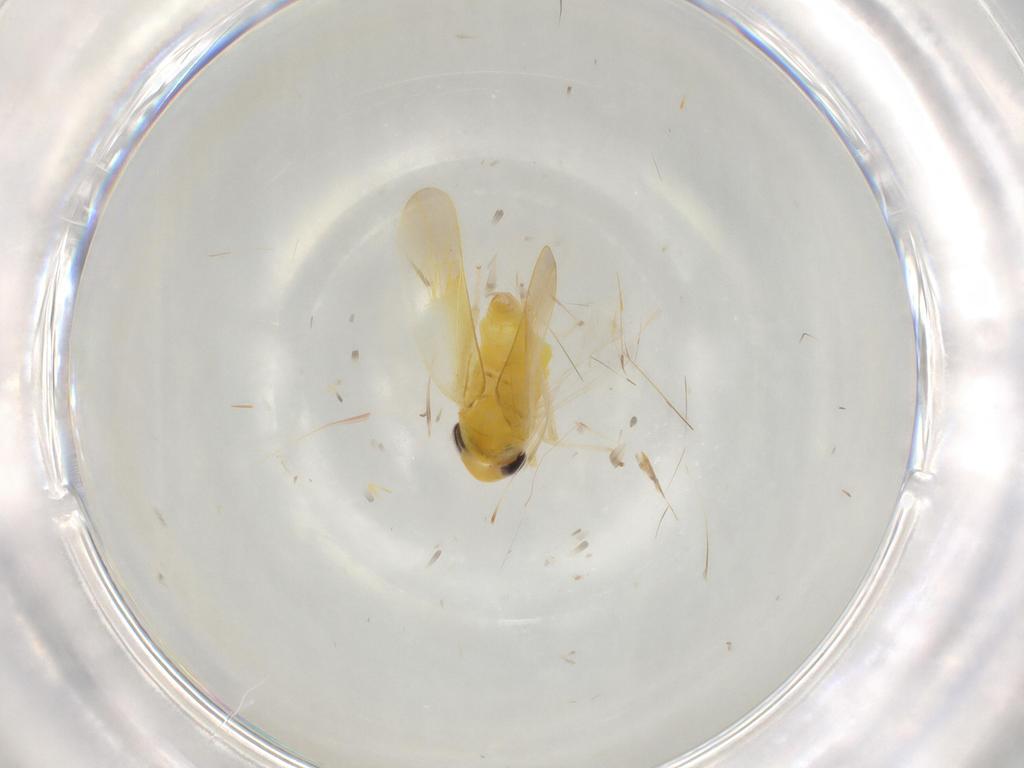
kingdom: Animalia
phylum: Arthropoda
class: Insecta
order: Hemiptera
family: Cicadellidae
